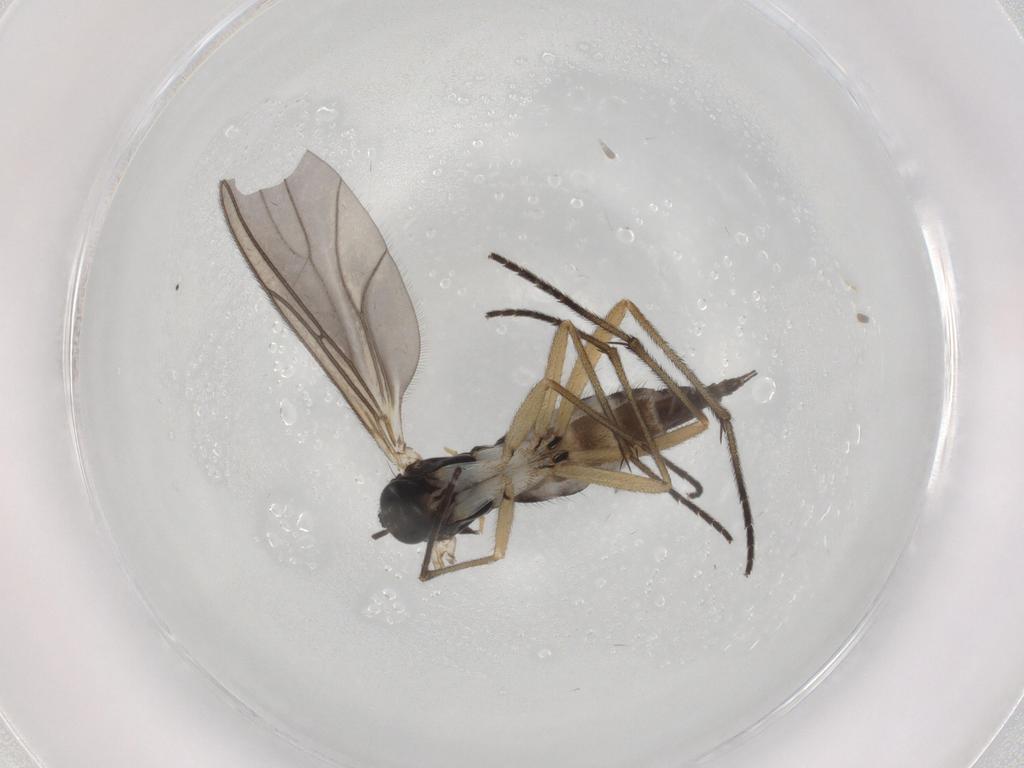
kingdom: Animalia
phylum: Arthropoda
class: Insecta
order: Diptera
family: Sciaridae
